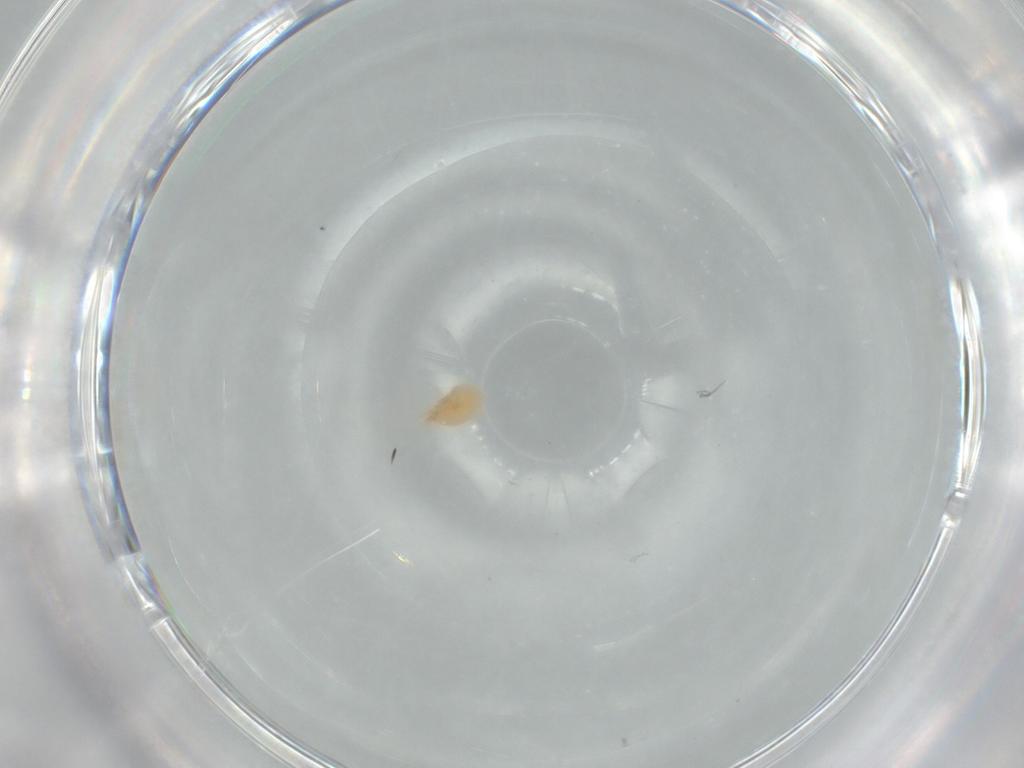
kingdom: Animalia
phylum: Arthropoda
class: Arachnida
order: Trombidiformes
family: Anystidae
